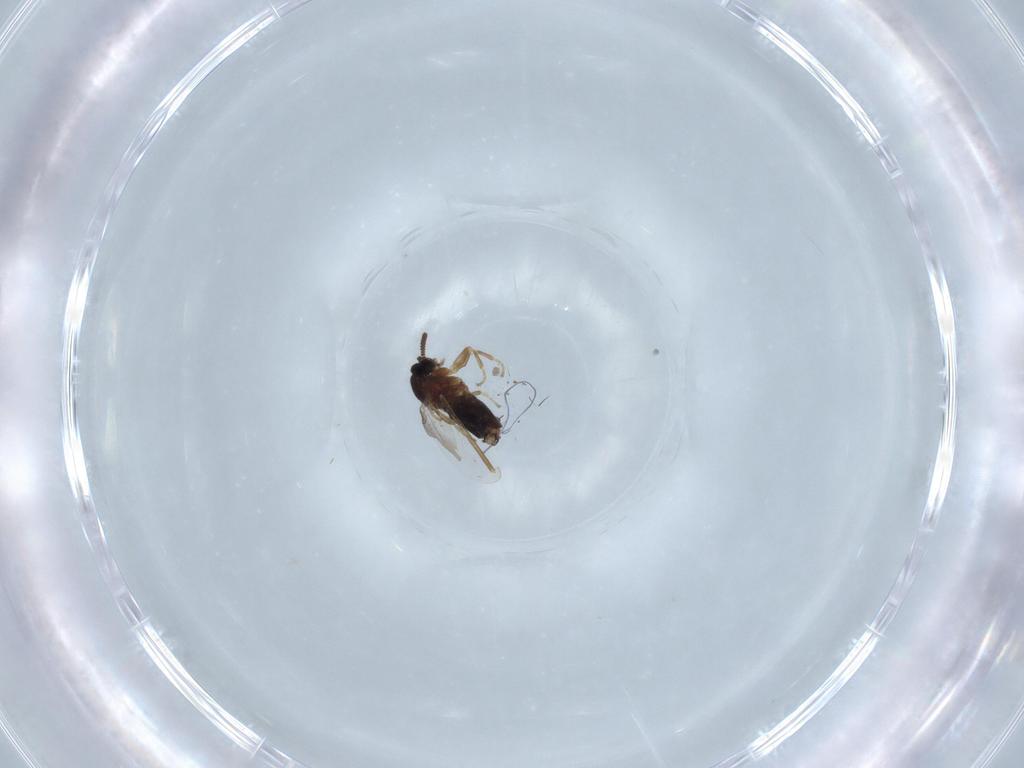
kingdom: Animalia
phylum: Arthropoda
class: Insecta
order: Diptera
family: Scatopsidae
